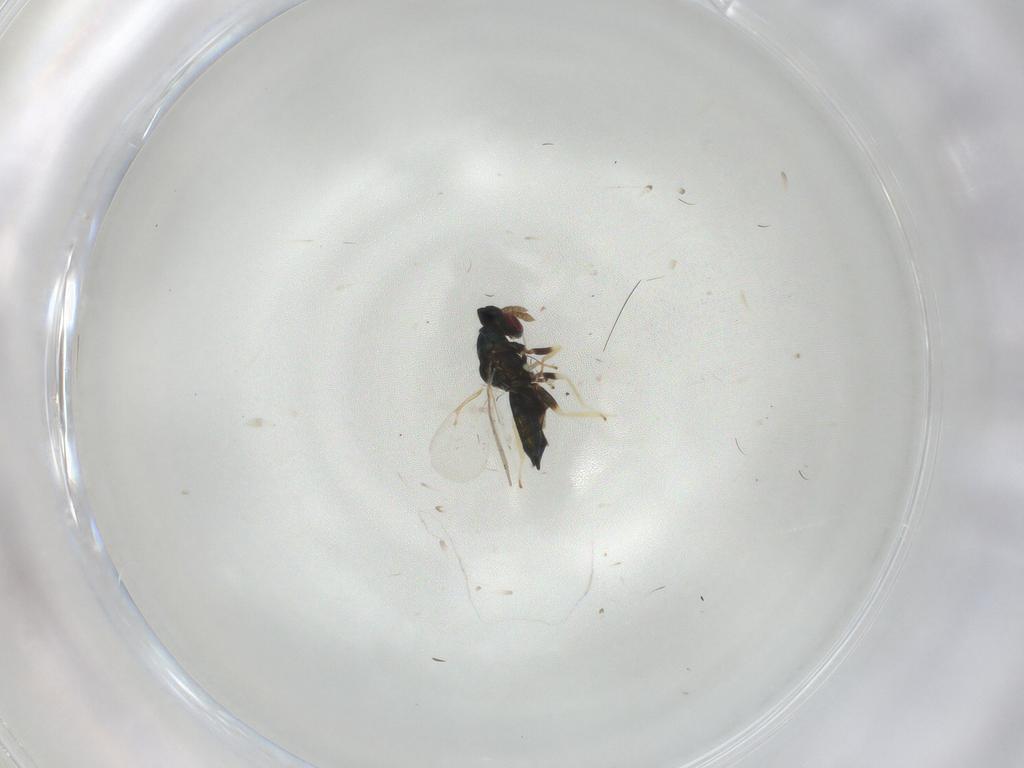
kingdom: Animalia
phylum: Arthropoda
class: Insecta
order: Hymenoptera
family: Eulophidae
